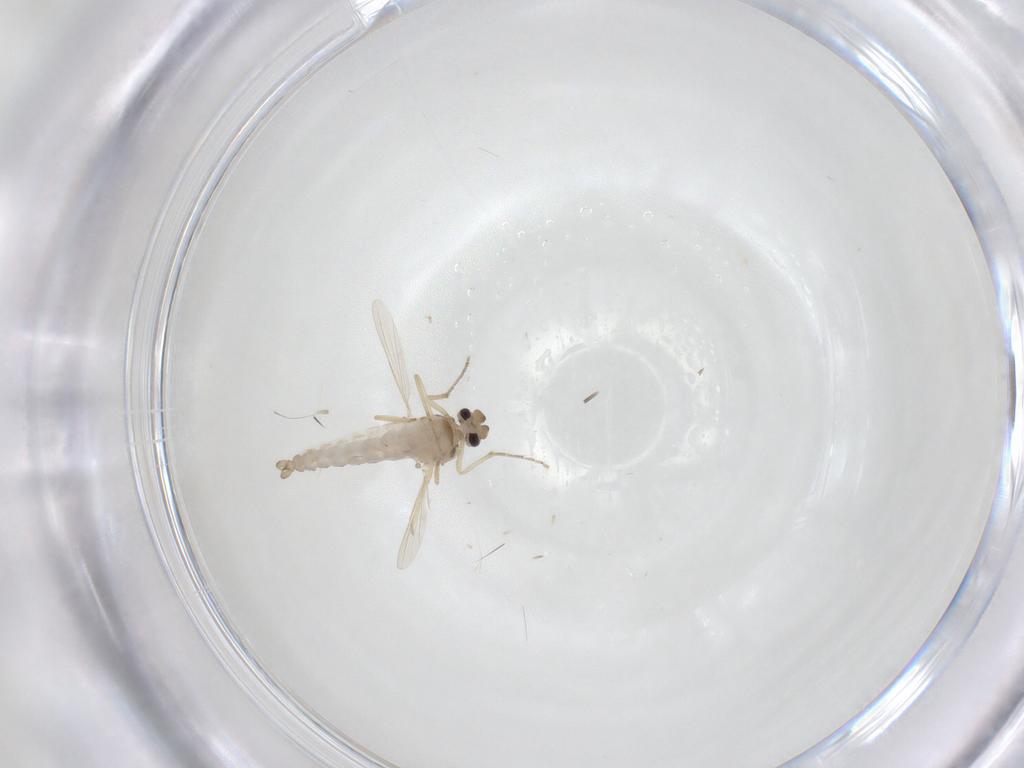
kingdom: Animalia
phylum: Arthropoda
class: Insecta
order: Diptera
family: Ceratopogonidae
